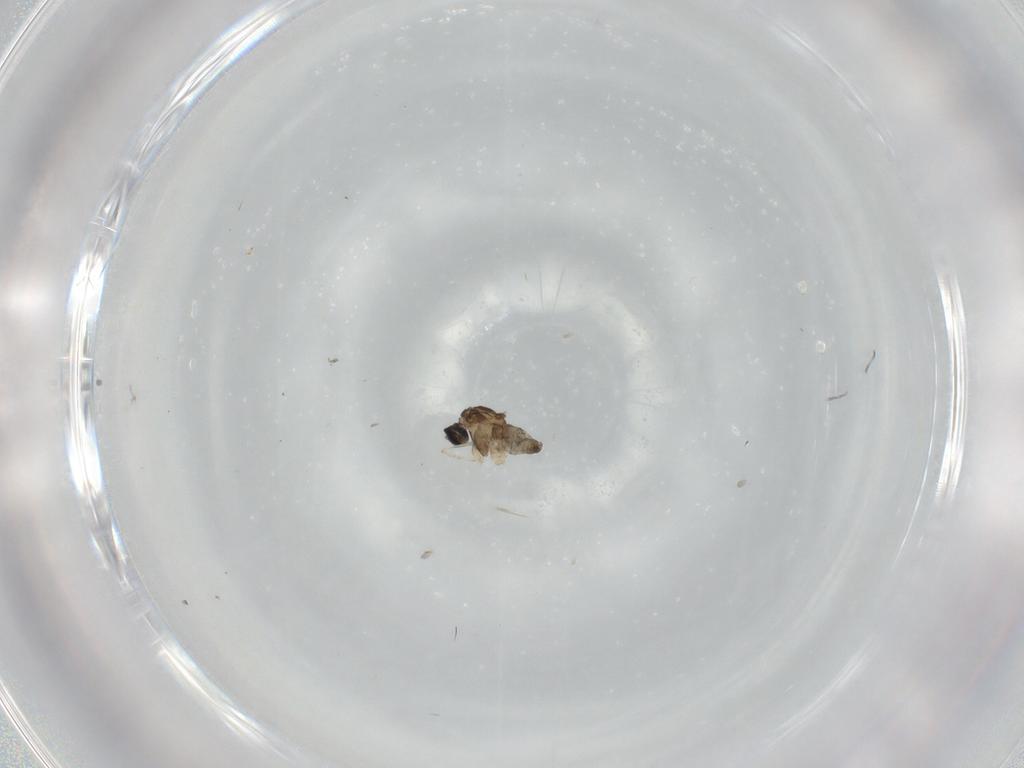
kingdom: Animalia
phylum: Arthropoda
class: Insecta
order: Diptera
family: Cecidomyiidae
